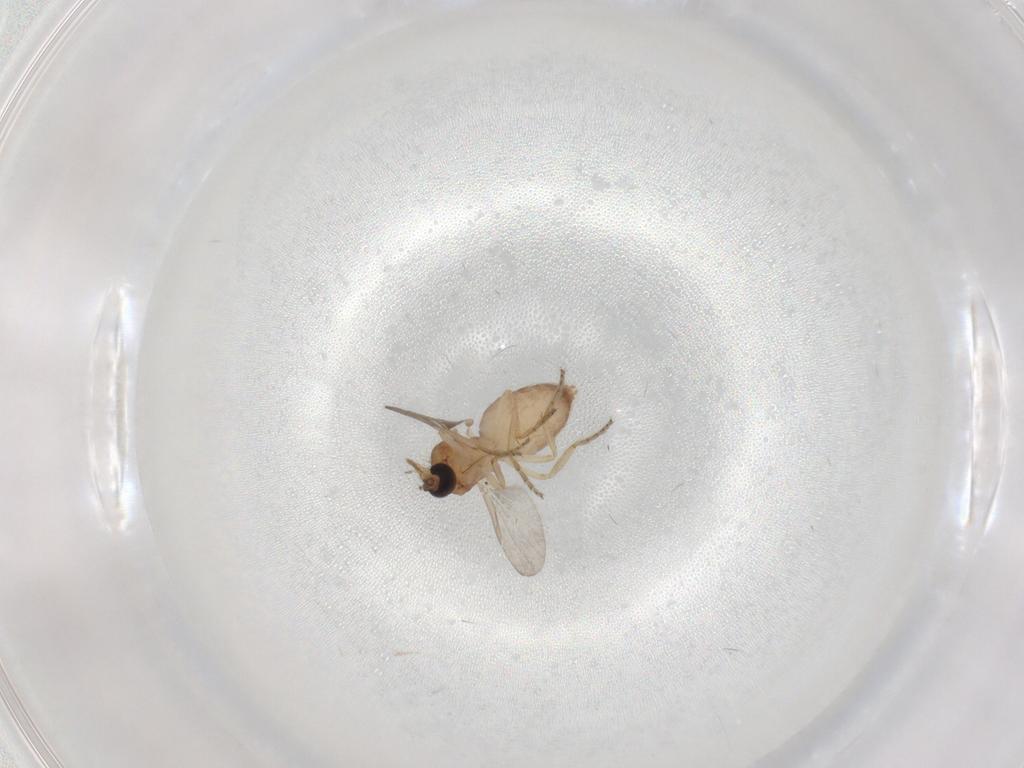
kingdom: Animalia
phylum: Arthropoda
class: Insecta
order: Diptera
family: Ceratopogonidae
